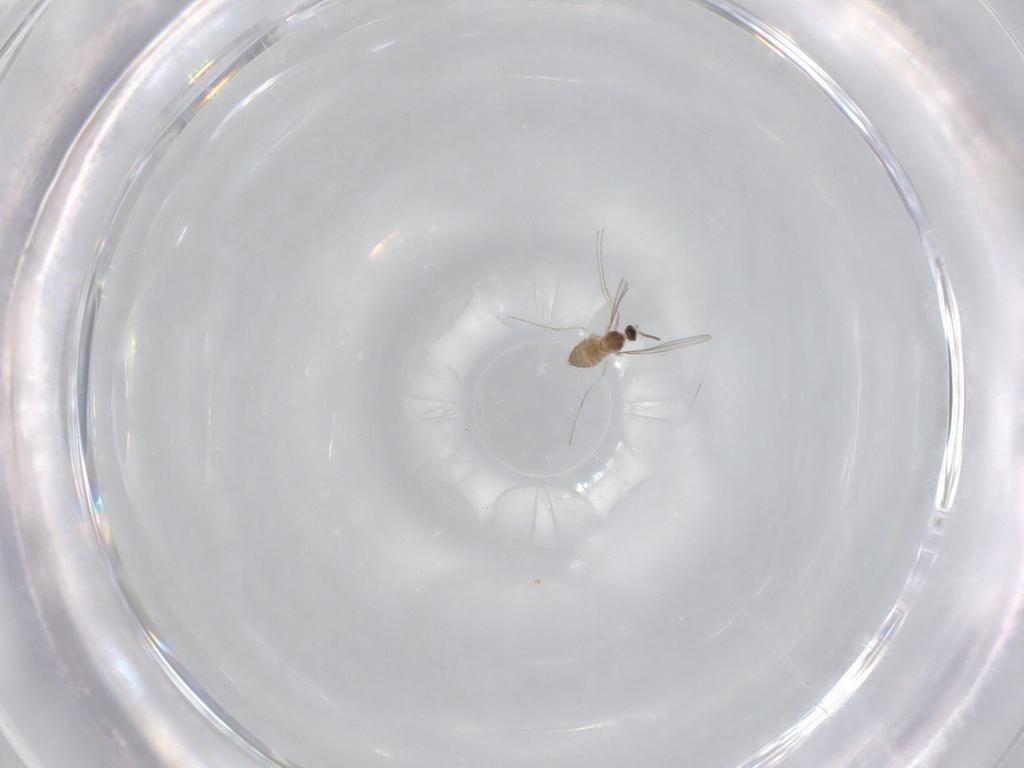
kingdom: Animalia
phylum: Arthropoda
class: Insecta
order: Diptera
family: Cecidomyiidae
